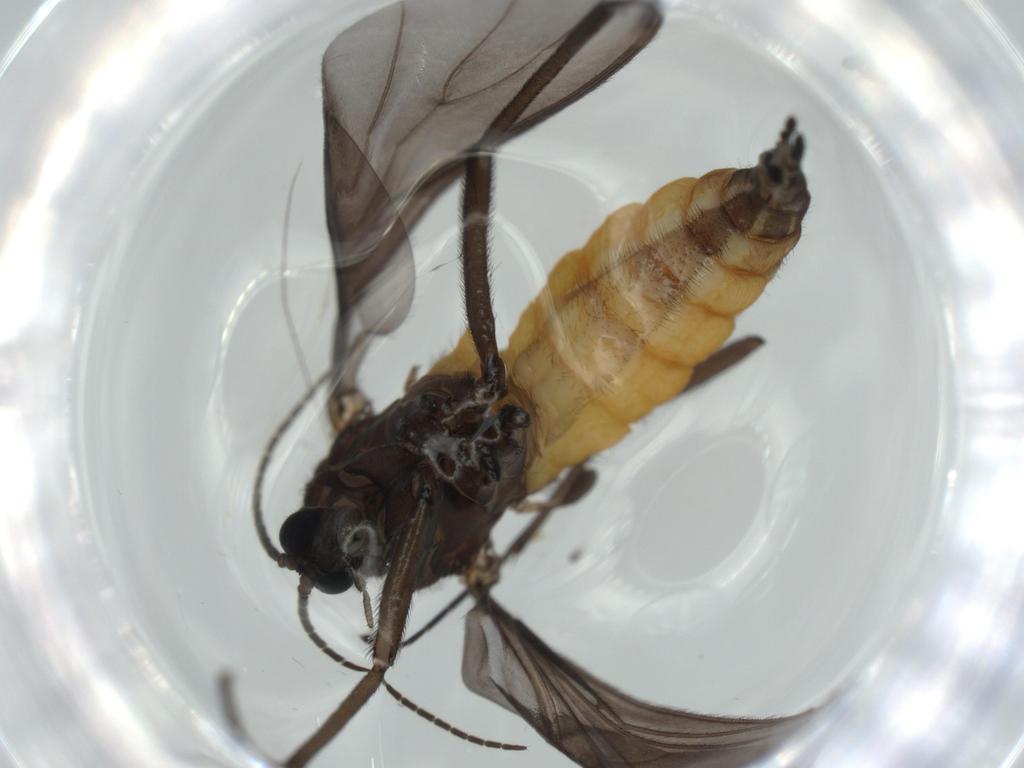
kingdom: Animalia
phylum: Arthropoda
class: Insecta
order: Diptera
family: Cecidomyiidae
